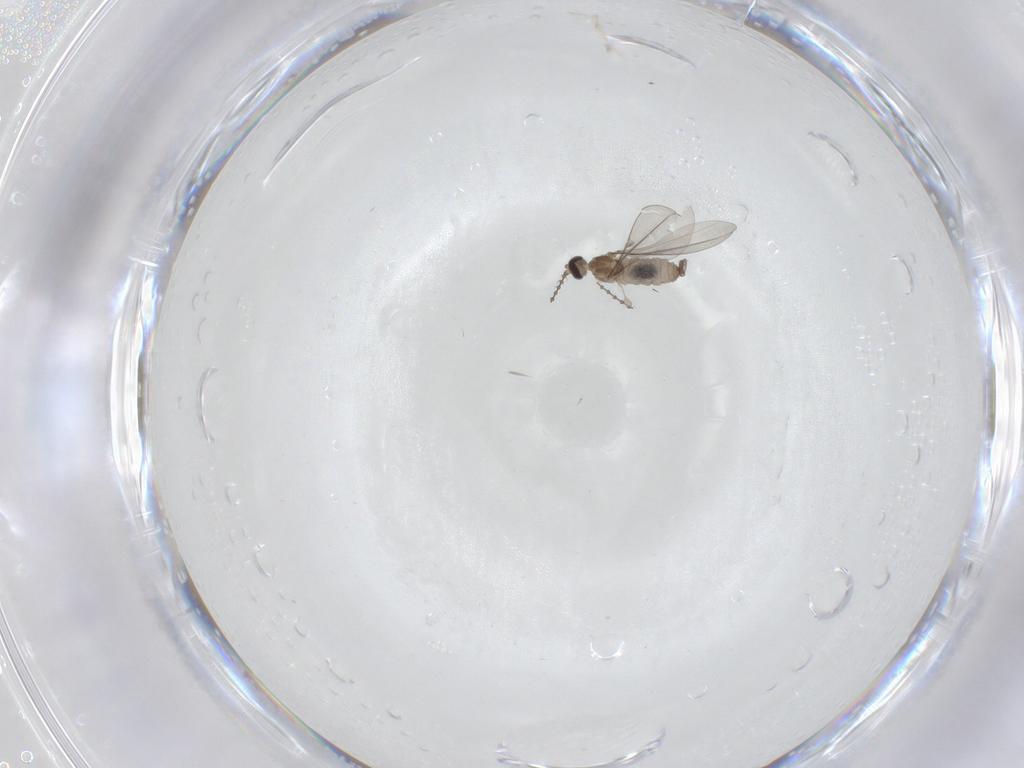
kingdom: Animalia
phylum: Arthropoda
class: Insecta
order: Diptera
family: Cecidomyiidae
